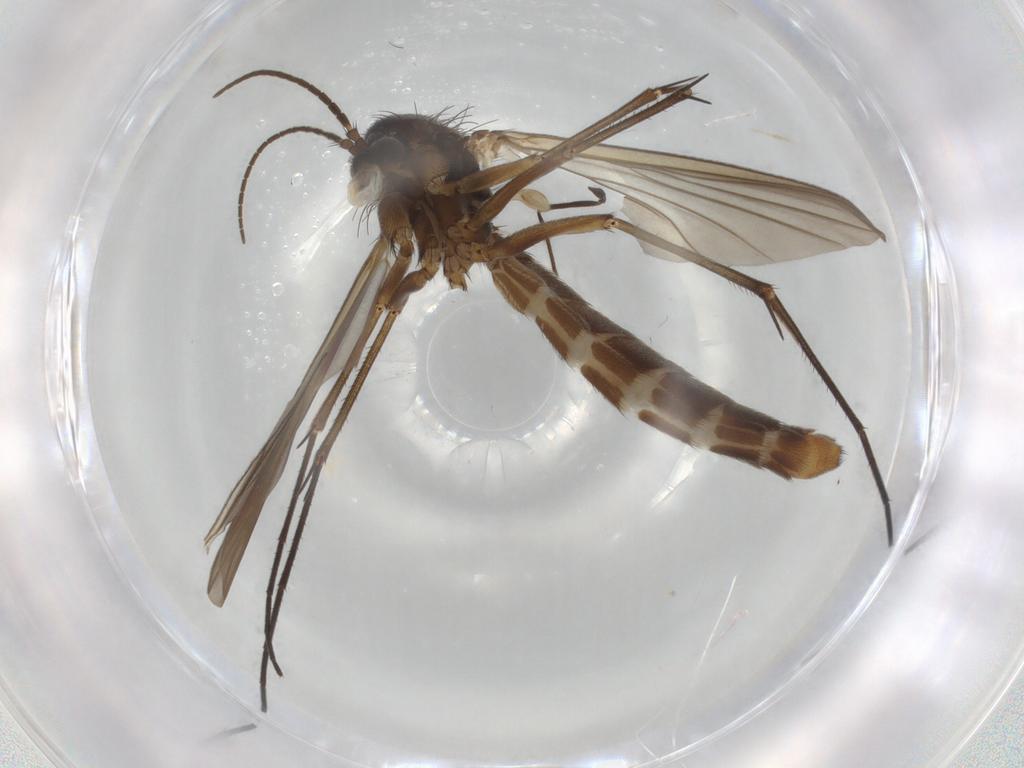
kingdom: Animalia
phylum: Arthropoda
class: Insecta
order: Diptera
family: Mycetophilidae
